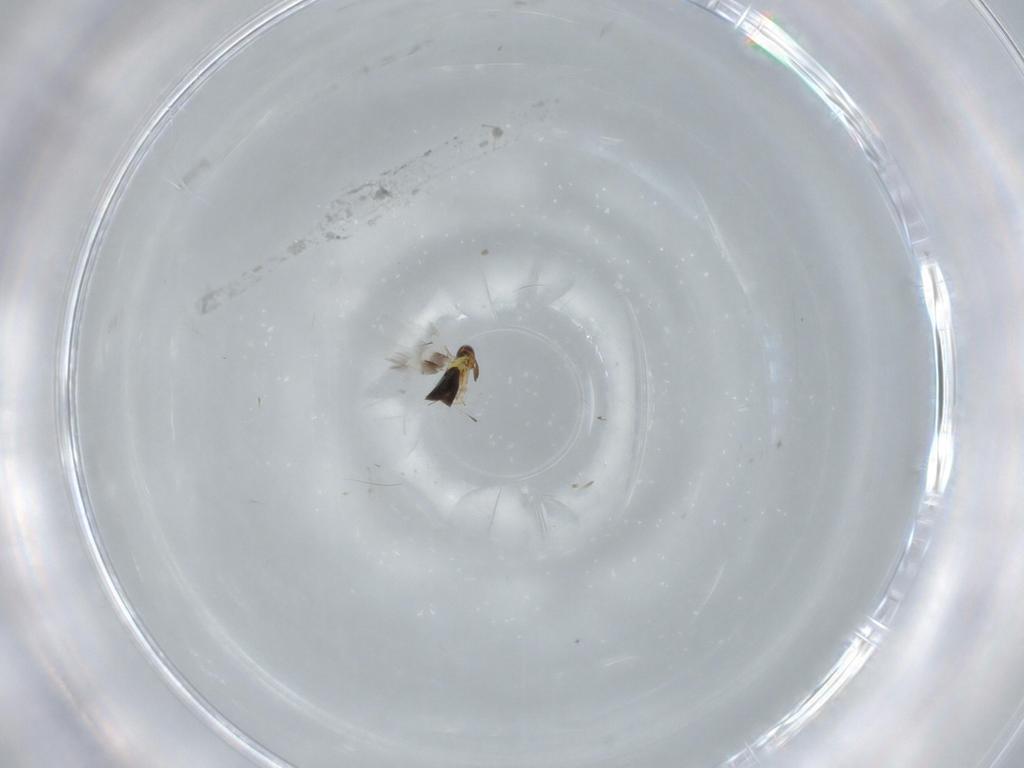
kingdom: Animalia
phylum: Arthropoda
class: Insecta
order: Hymenoptera
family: Signiphoridae
